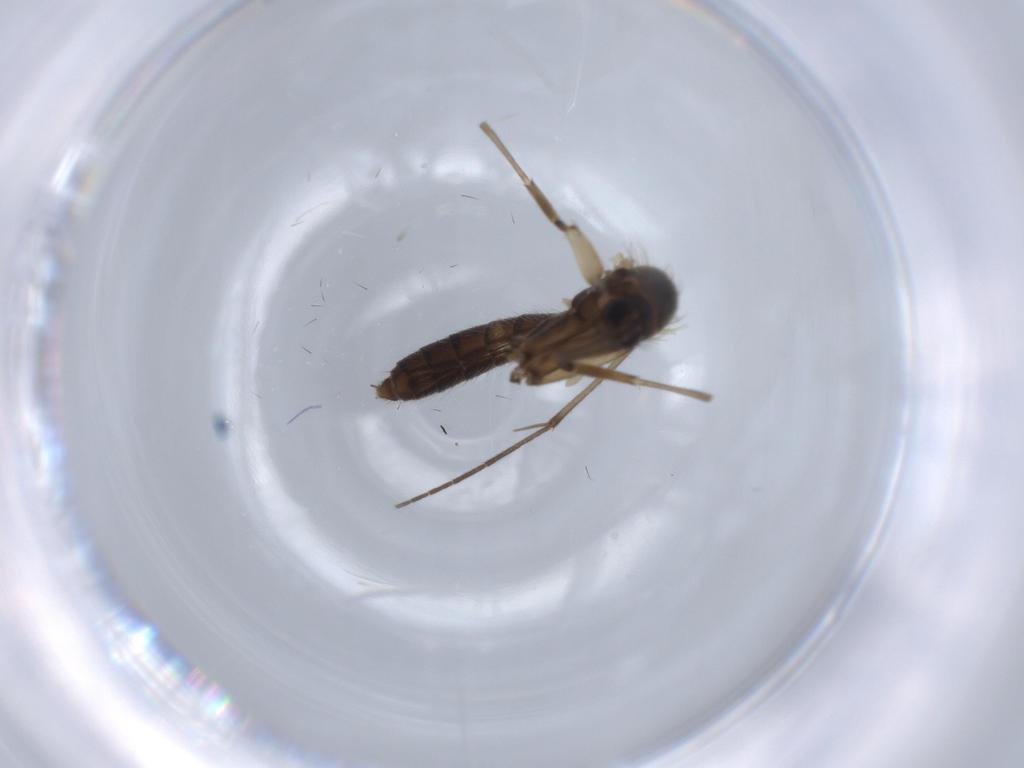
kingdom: Animalia
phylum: Arthropoda
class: Insecta
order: Diptera
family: Mycetophilidae
